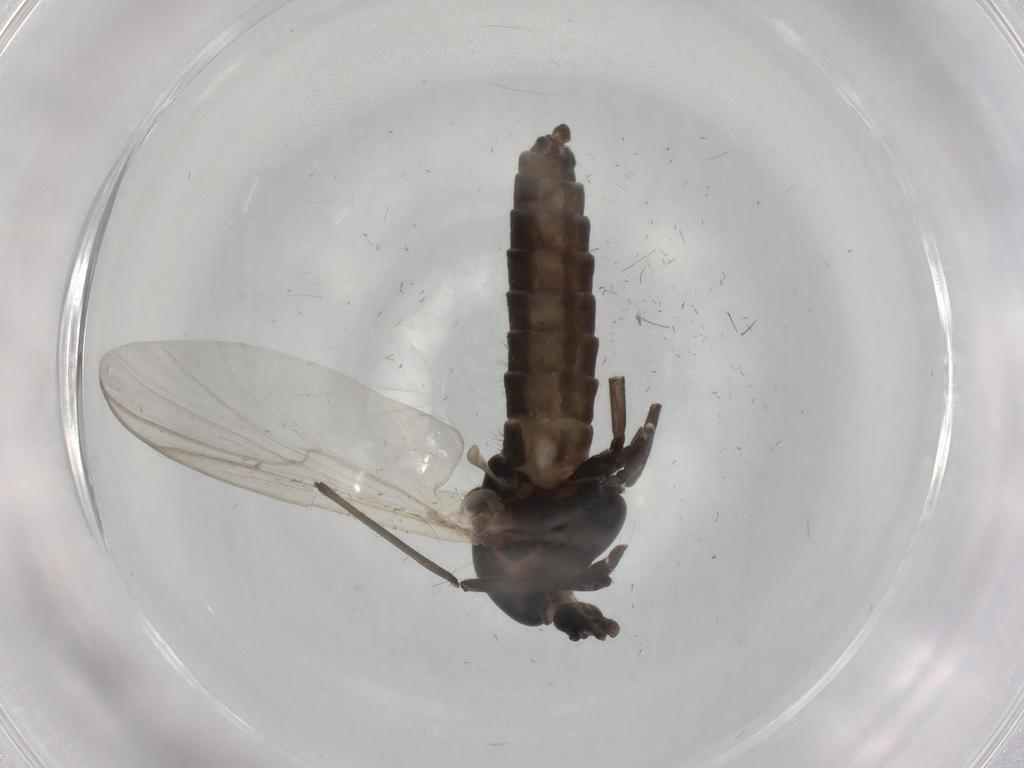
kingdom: Animalia
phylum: Arthropoda
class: Insecta
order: Diptera
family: Chironomidae
